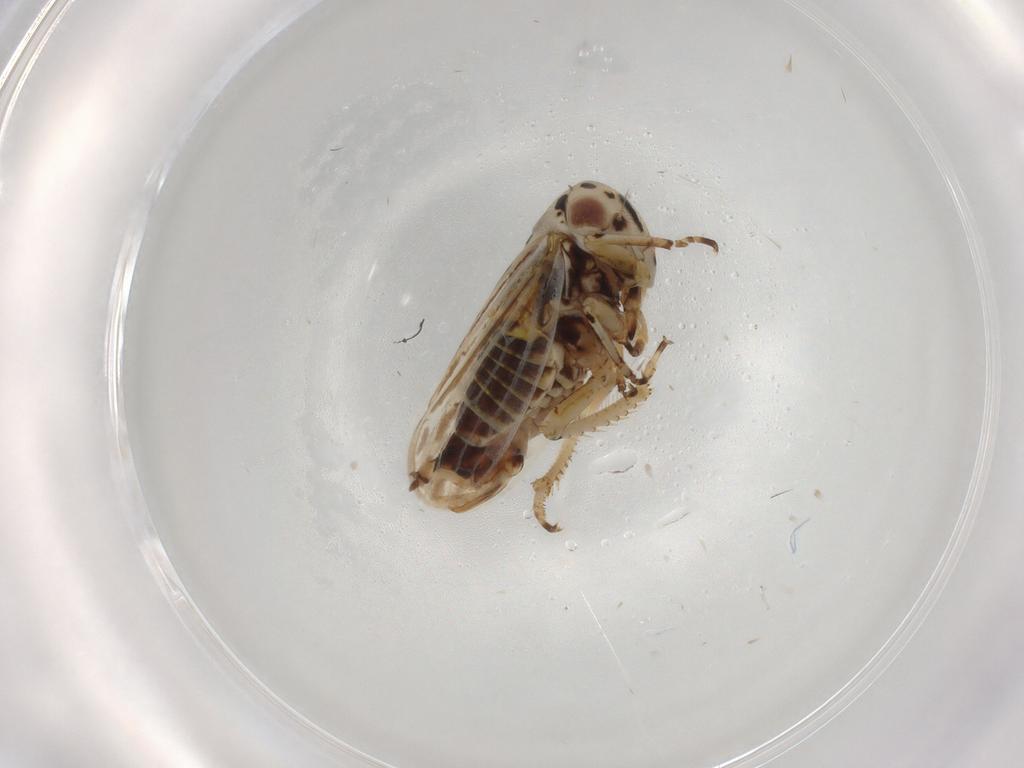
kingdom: Animalia
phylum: Arthropoda
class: Insecta
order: Hemiptera
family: Cicadellidae
